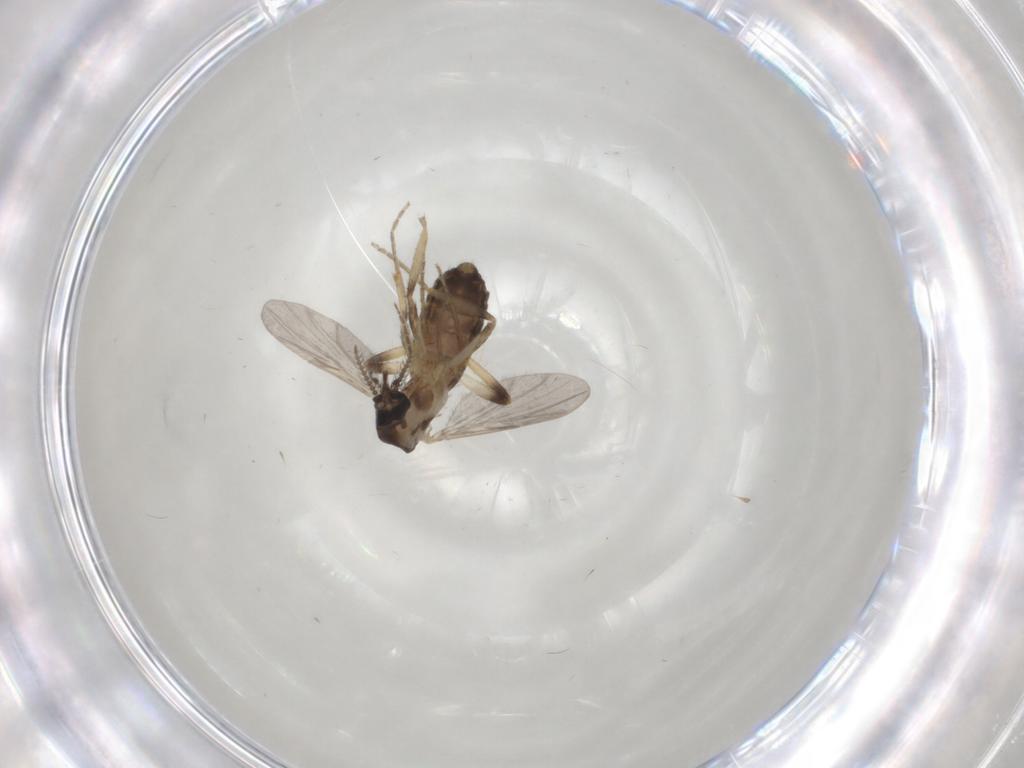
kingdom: Animalia
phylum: Arthropoda
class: Insecta
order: Diptera
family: Ceratopogonidae
